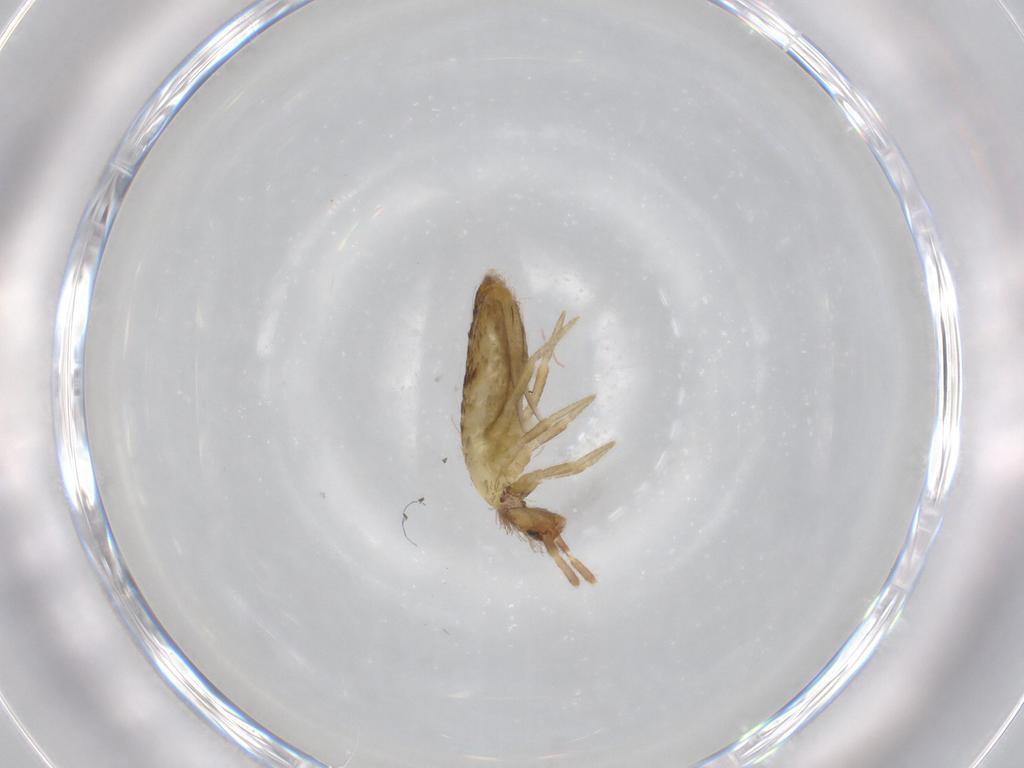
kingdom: Animalia
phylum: Arthropoda
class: Collembola
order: Entomobryomorpha
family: Entomobryidae
